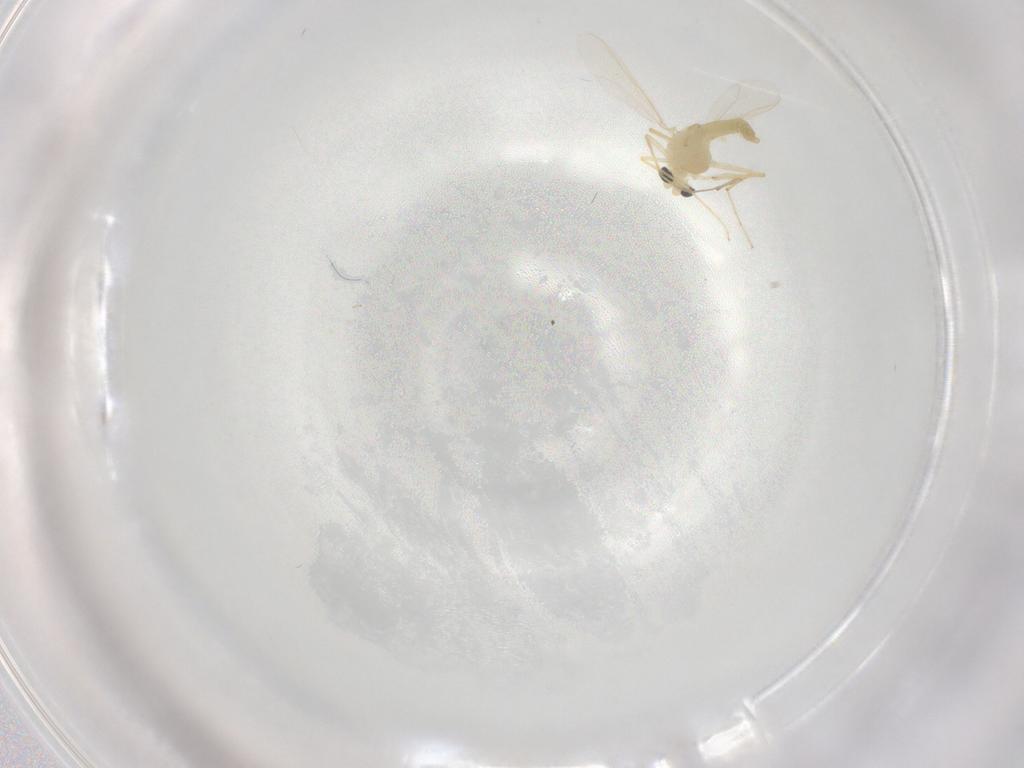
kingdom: Animalia
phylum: Arthropoda
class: Insecta
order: Diptera
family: Chironomidae
